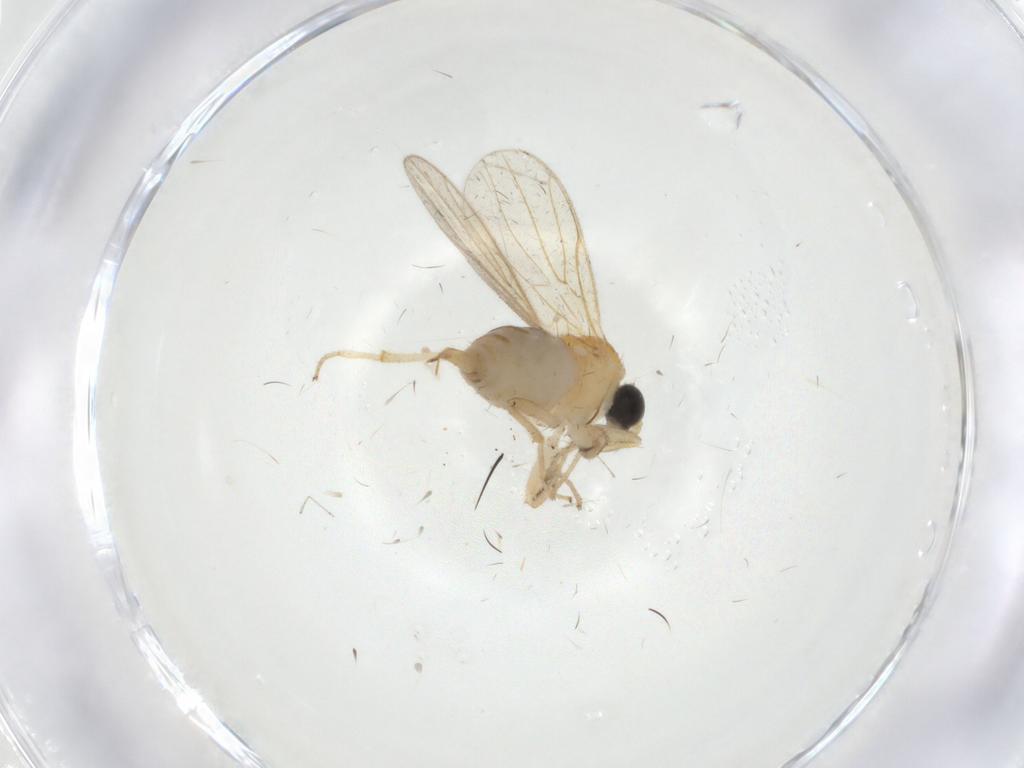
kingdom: Animalia
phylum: Arthropoda
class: Insecta
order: Diptera
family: Cecidomyiidae
